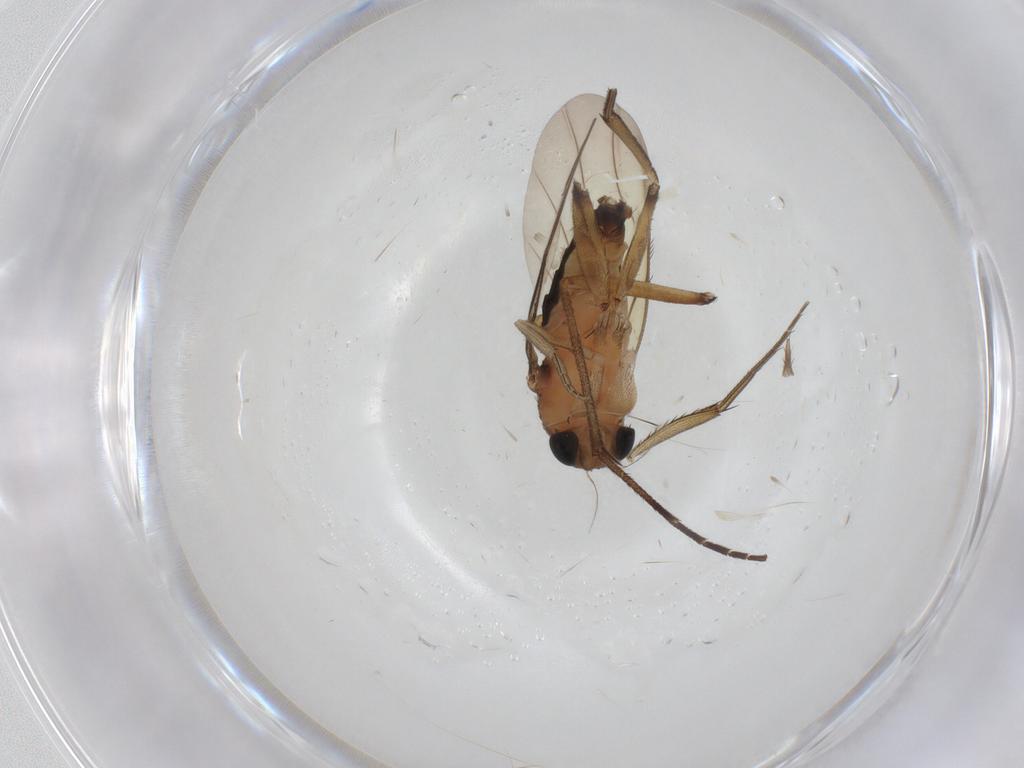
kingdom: Animalia
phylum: Arthropoda
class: Insecta
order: Diptera
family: Phoridae
